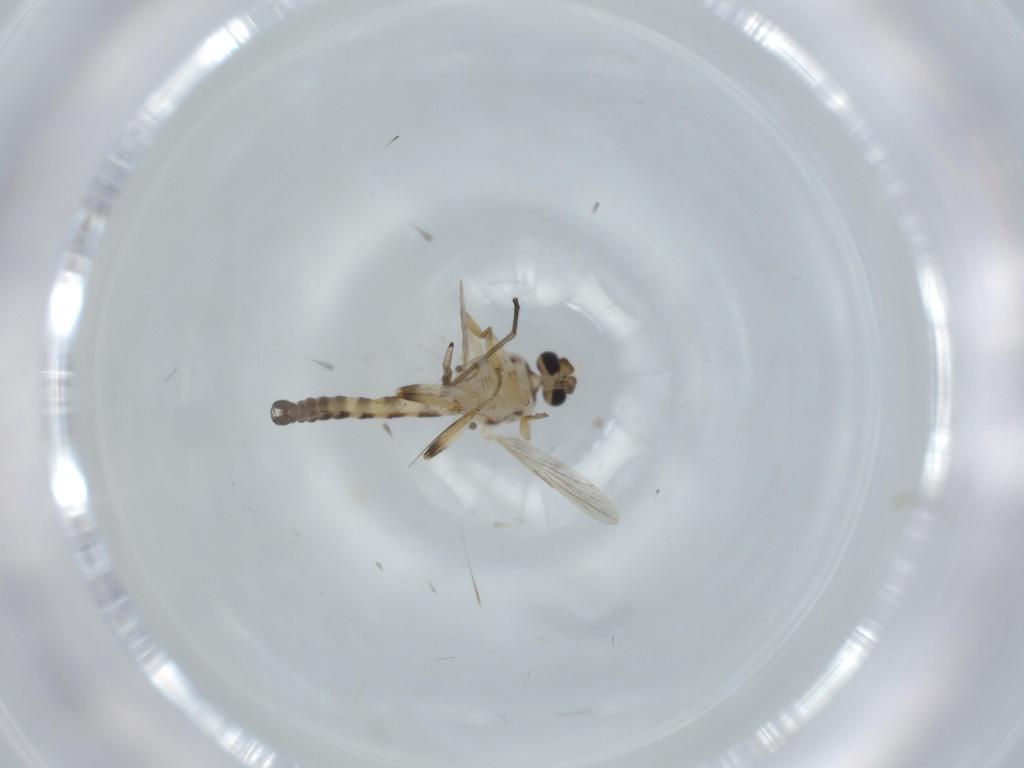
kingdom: Animalia
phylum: Arthropoda
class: Insecta
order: Diptera
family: Sciaridae
